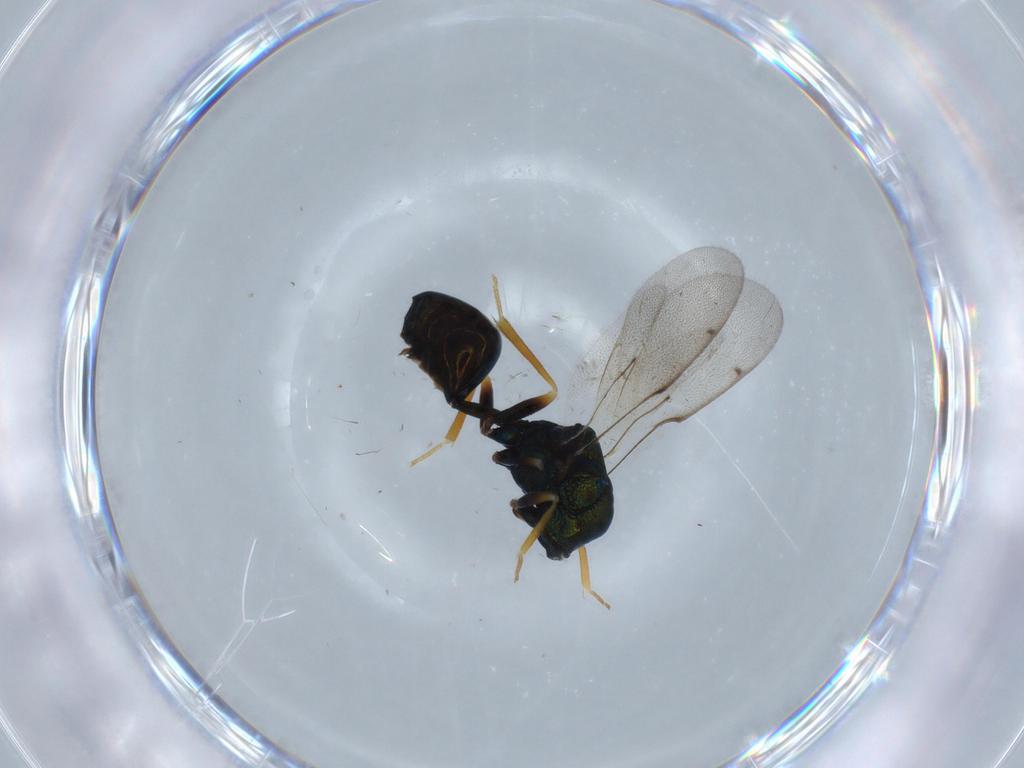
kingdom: Animalia
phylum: Arthropoda
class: Insecta
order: Hymenoptera
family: Eucharitidae
